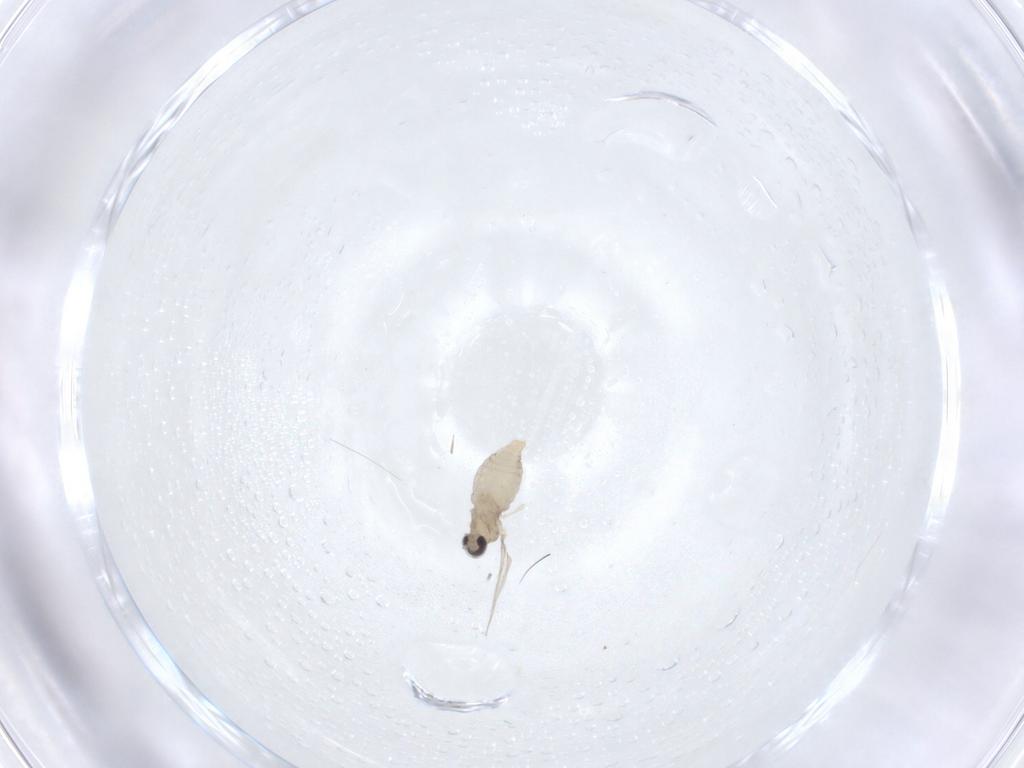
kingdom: Animalia
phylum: Arthropoda
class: Insecta
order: Diptera
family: Cecidomyiidae
